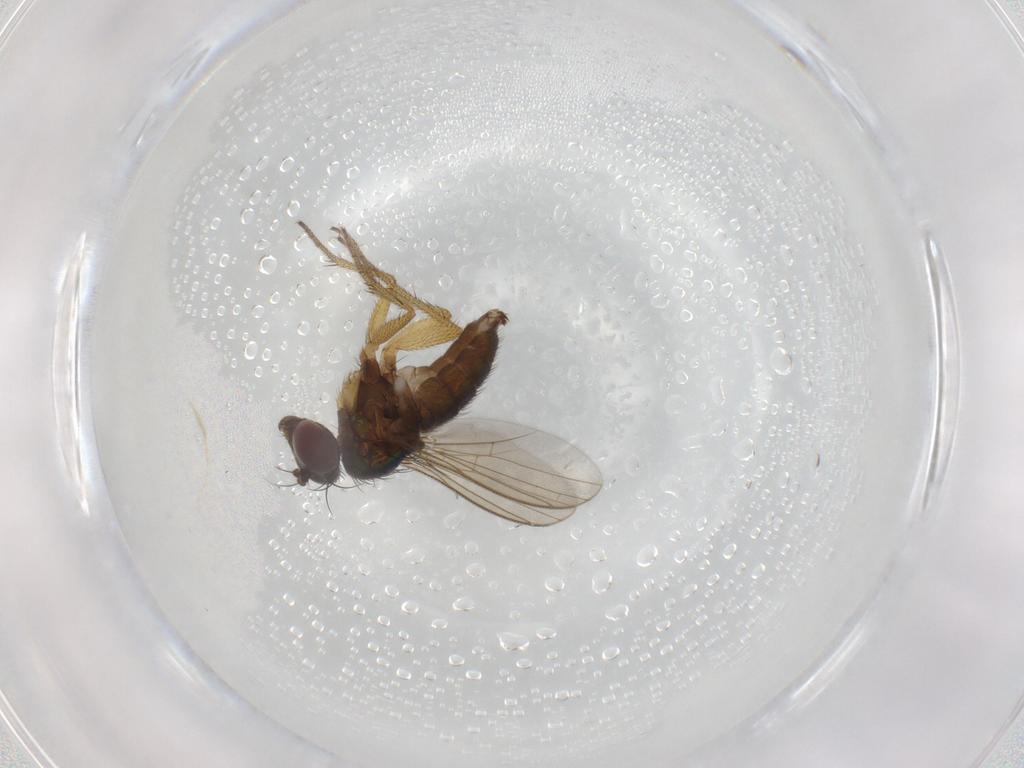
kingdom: Animalia
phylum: Arthropoda
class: Insecta
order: Diptera
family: Dolichopodidae
